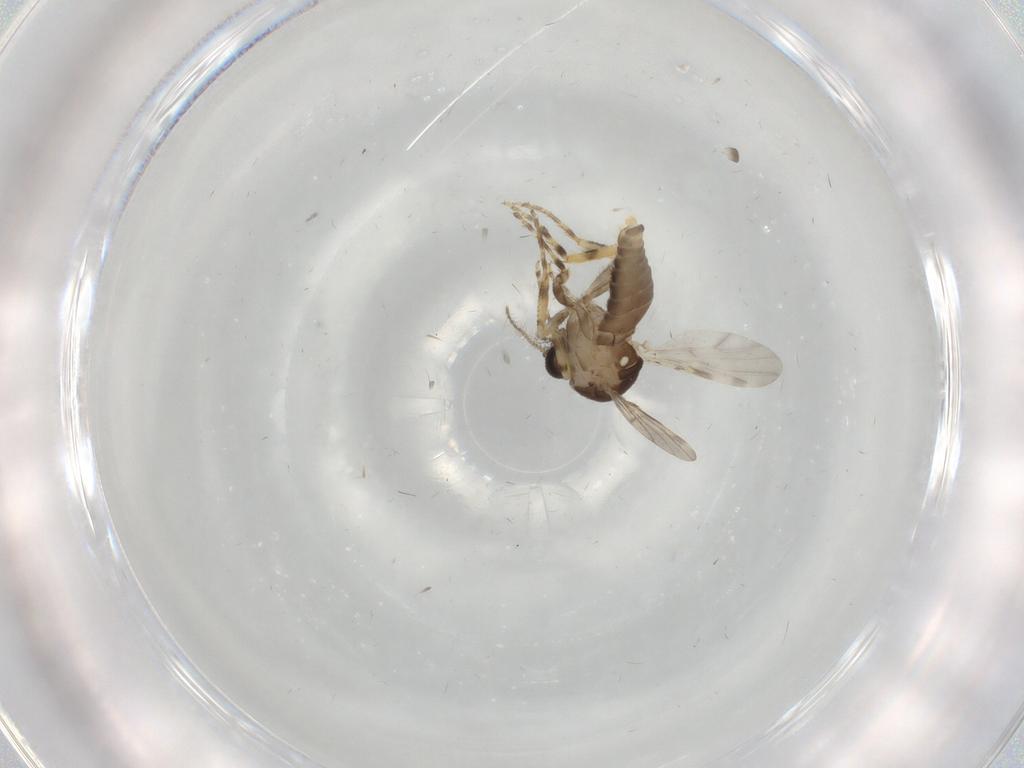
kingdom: Animalia
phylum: Arthropoda
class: Insecta
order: Diptera
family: Ceratopogonidae
